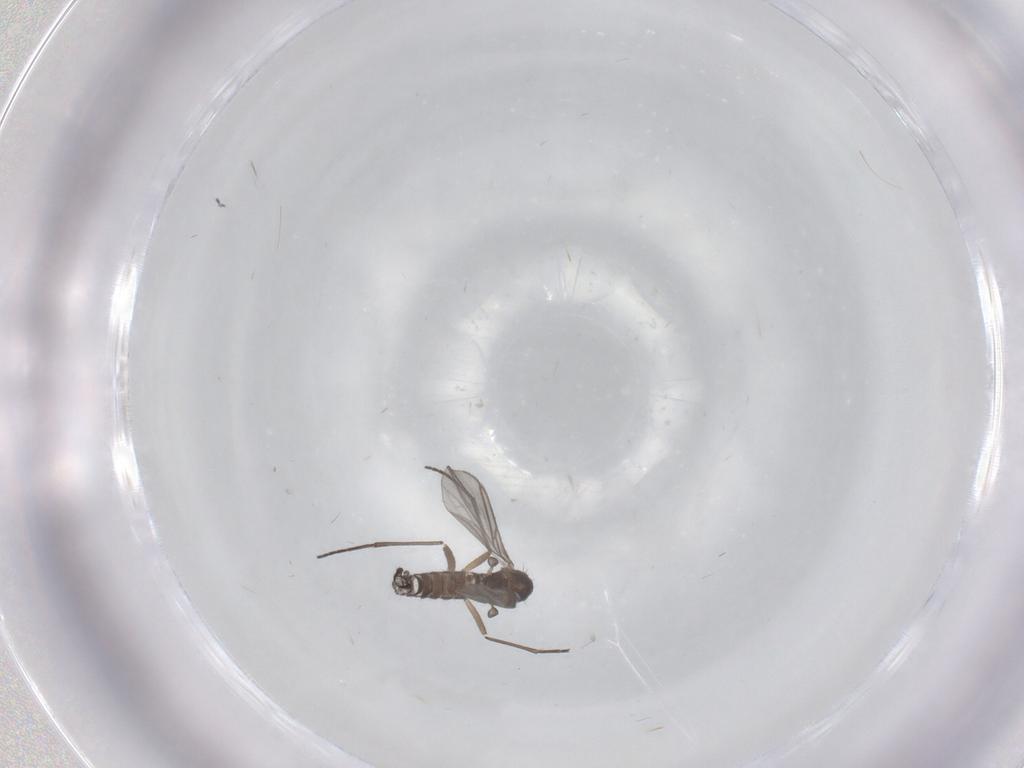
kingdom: Animalia
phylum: Arthropoda
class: Insecta
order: Diptera
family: Ceratopogonidae
